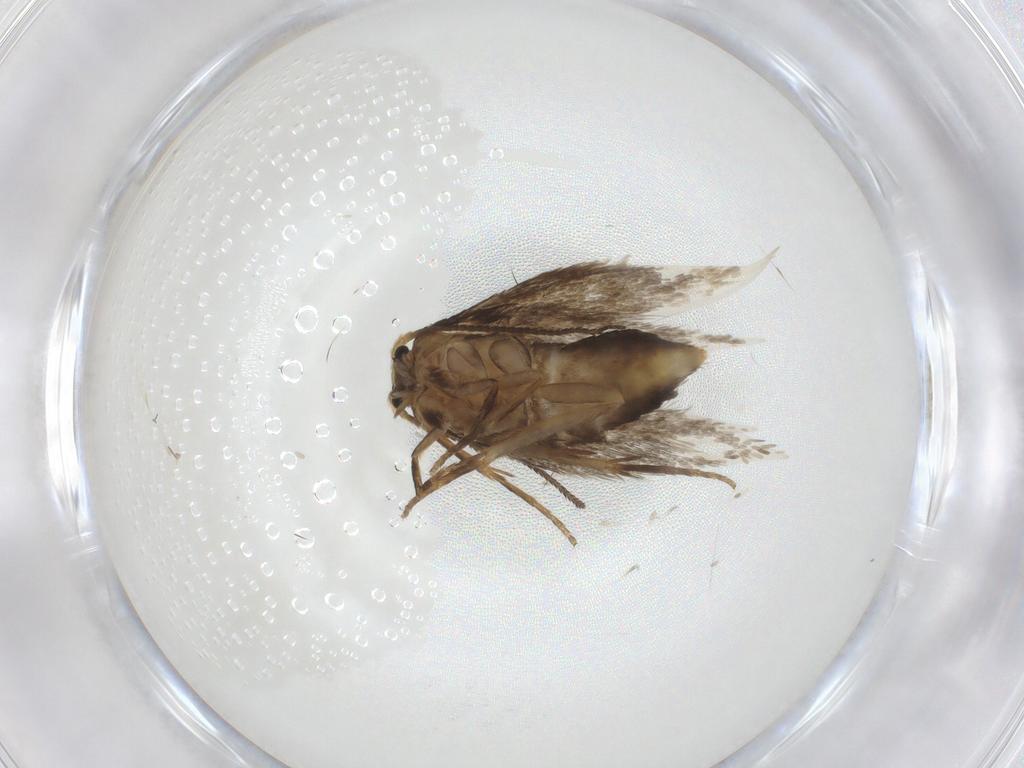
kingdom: Animalia
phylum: Arthropoda
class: Insecta
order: Lepidoptera
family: Nepticulidae
